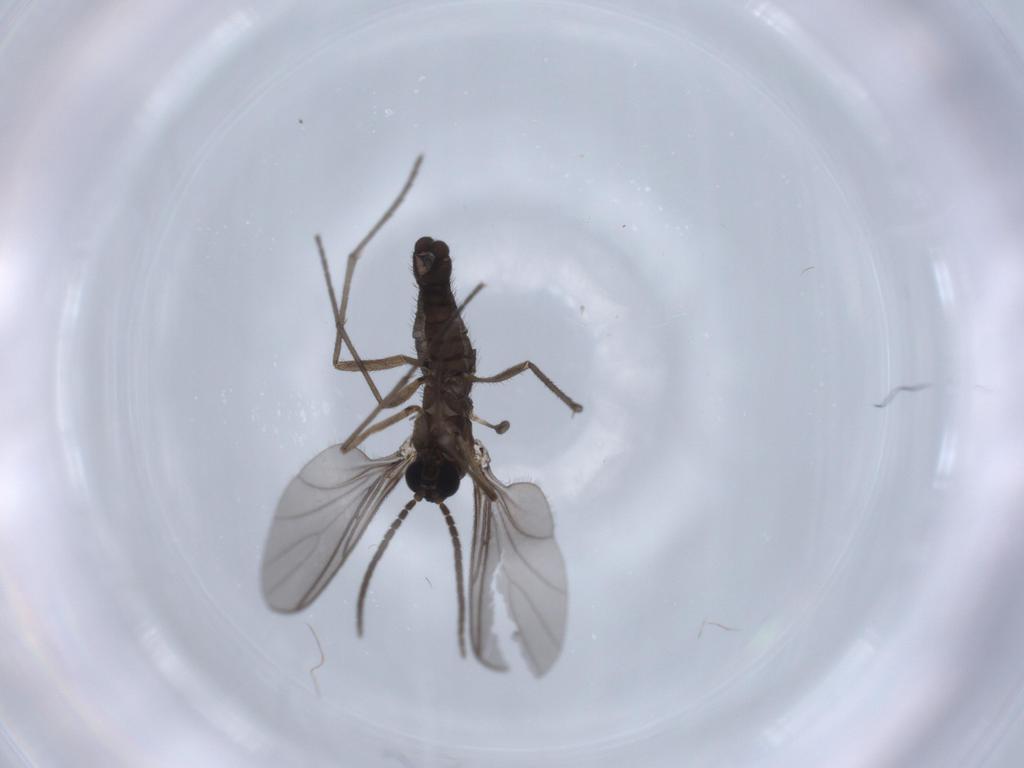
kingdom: Animalia
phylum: Arthropoda
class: Insecta
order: Diptera
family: Sciaridae
